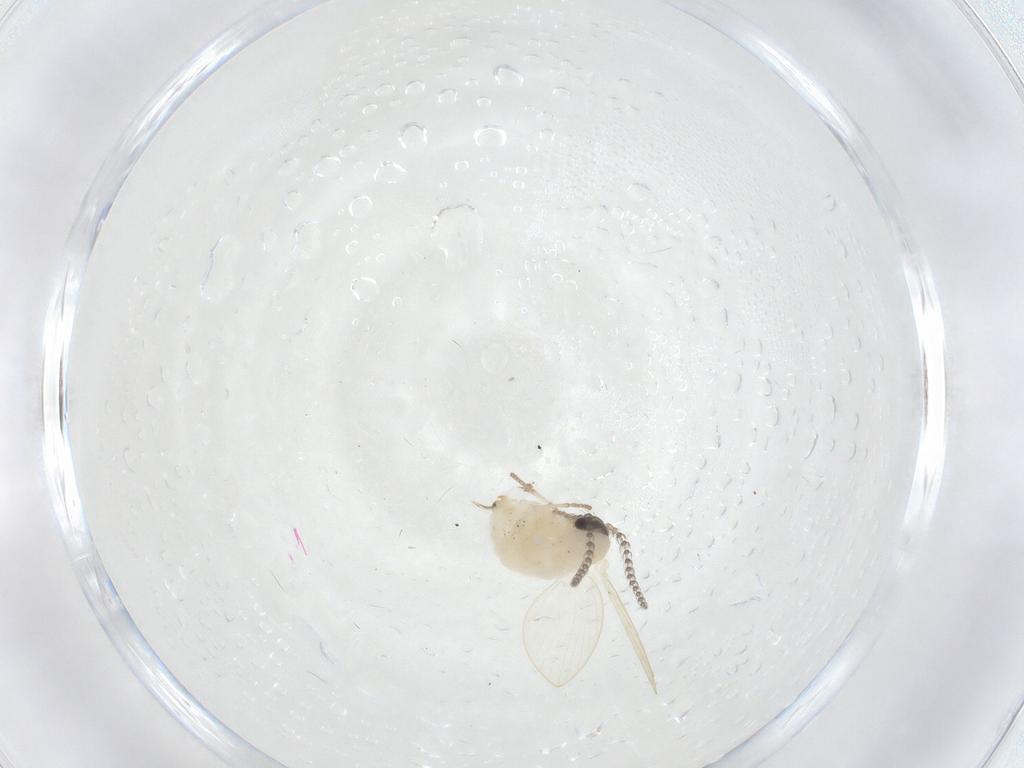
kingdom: Animalia
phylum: Arthropoda
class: Insecta
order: Diptera
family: Psychodidae
